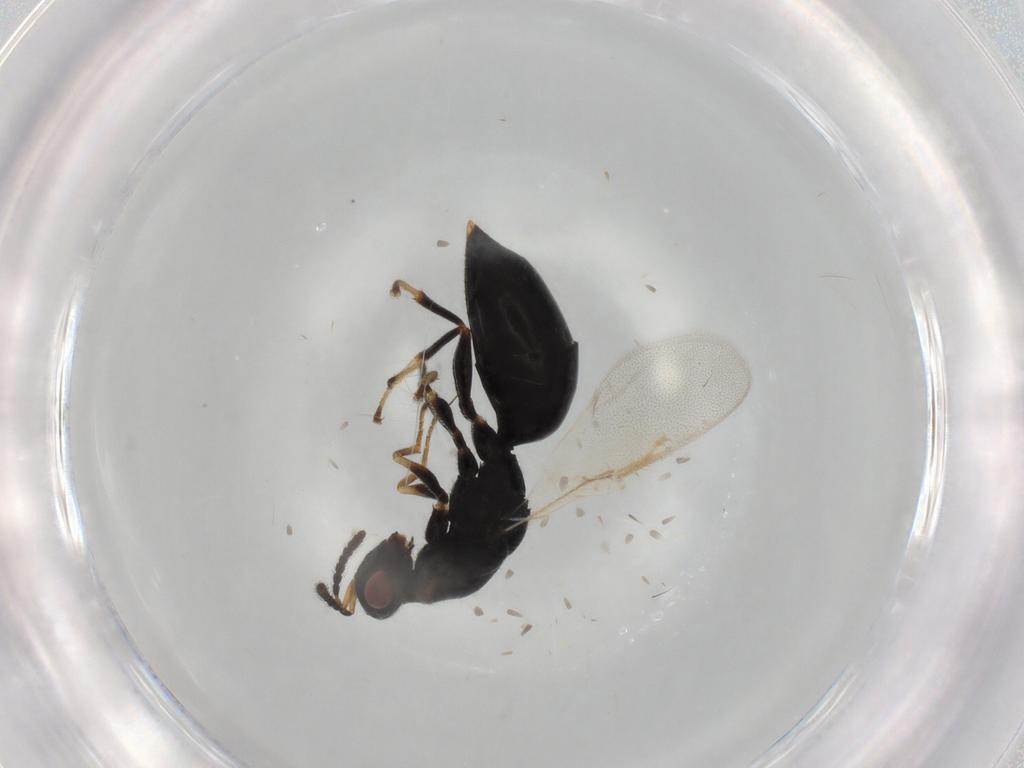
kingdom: Animalia
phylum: Arthropoda
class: Insecta
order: Hymenoptera
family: Eurytomidae
